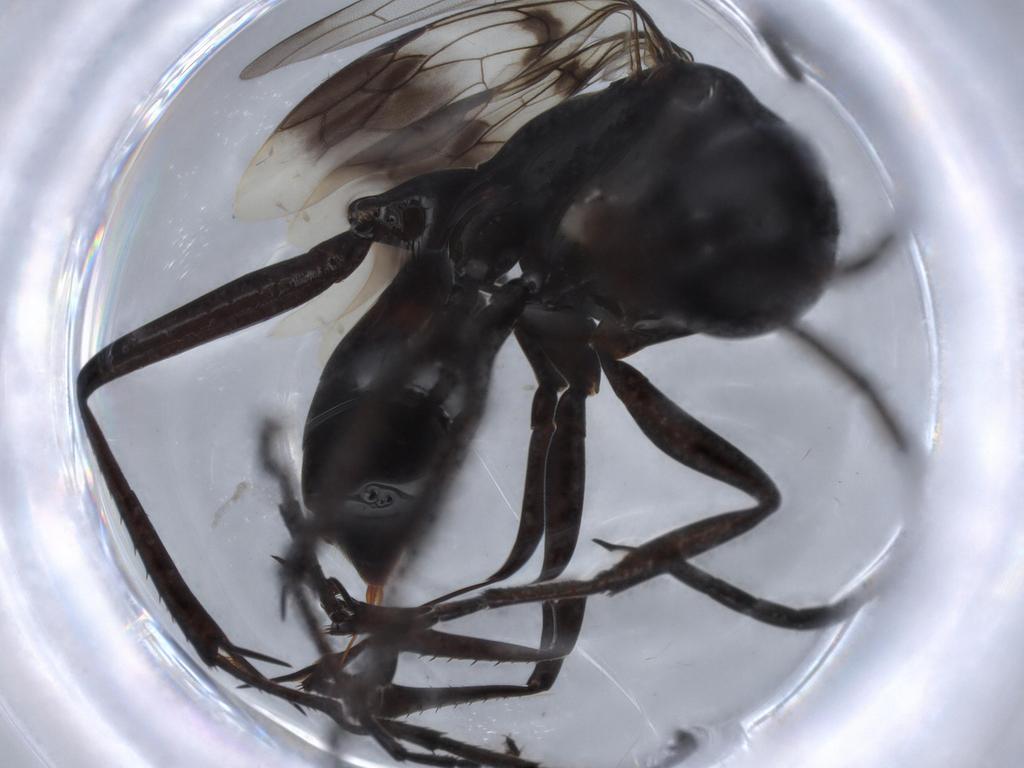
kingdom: Animalia
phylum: Arthropoda
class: Insecta
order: Hymenoptera
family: Pompilidae
